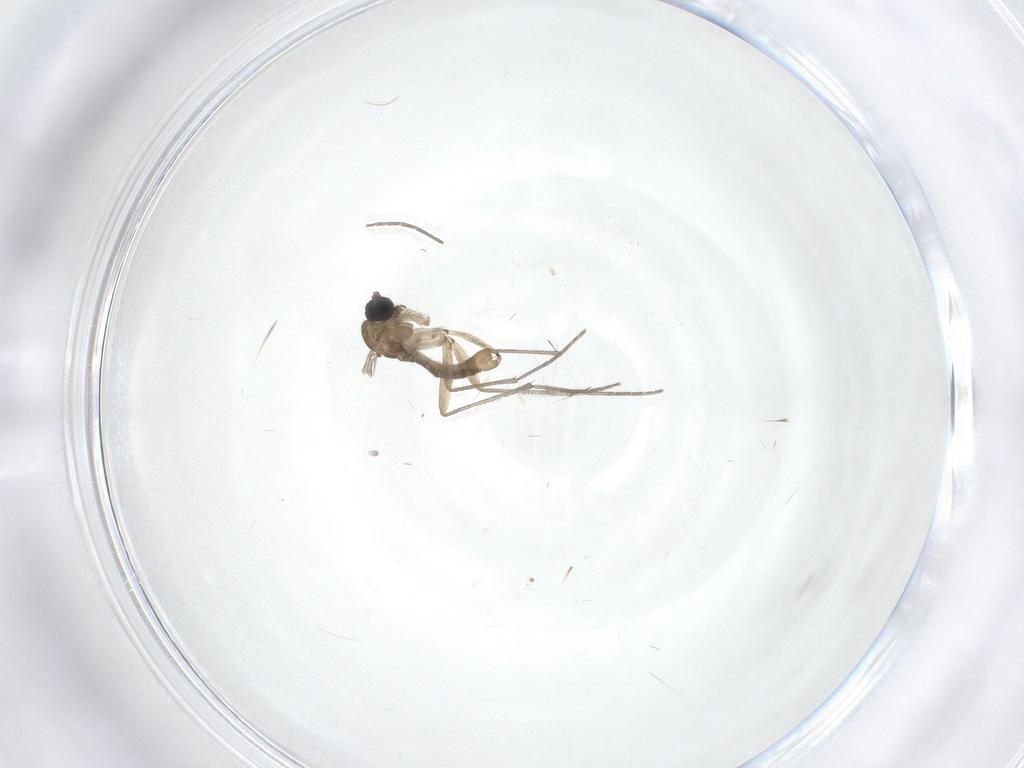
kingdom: Animalia
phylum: Arthropoda
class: Insecta
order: Diptera
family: Sciaridae
